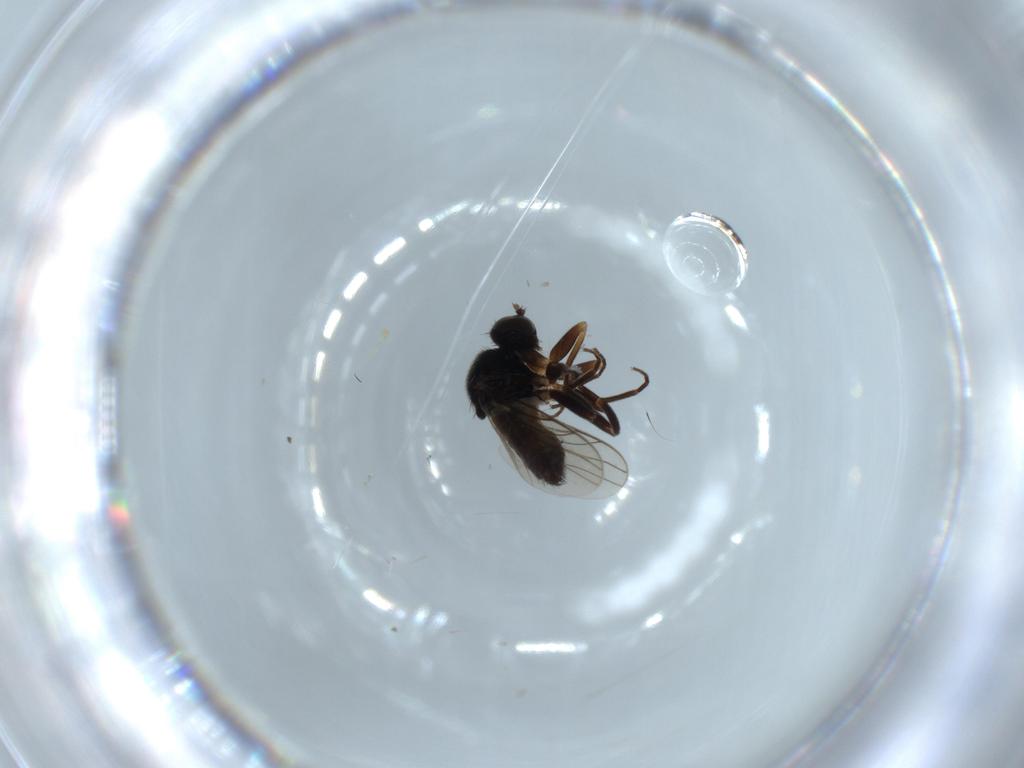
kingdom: Animalia
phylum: Arthropoda
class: Insecta
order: Diptera
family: Hybotidae
